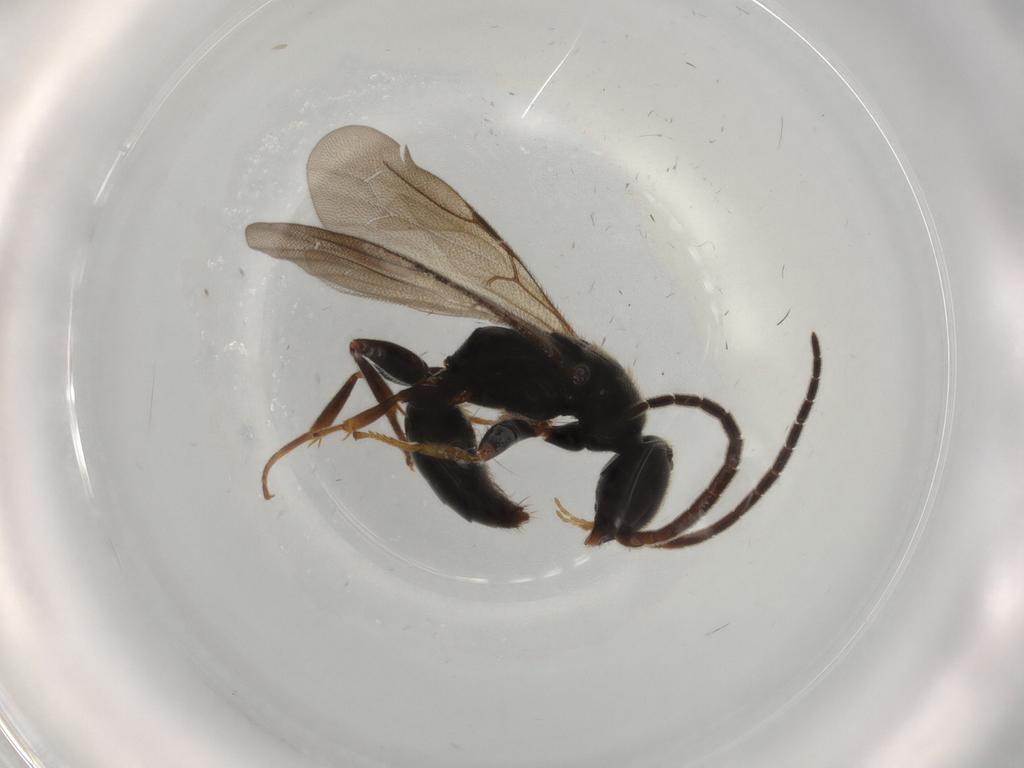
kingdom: Animalia
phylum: Arthropoda
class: Insecta
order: Hymenoptera
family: Bethylidae
